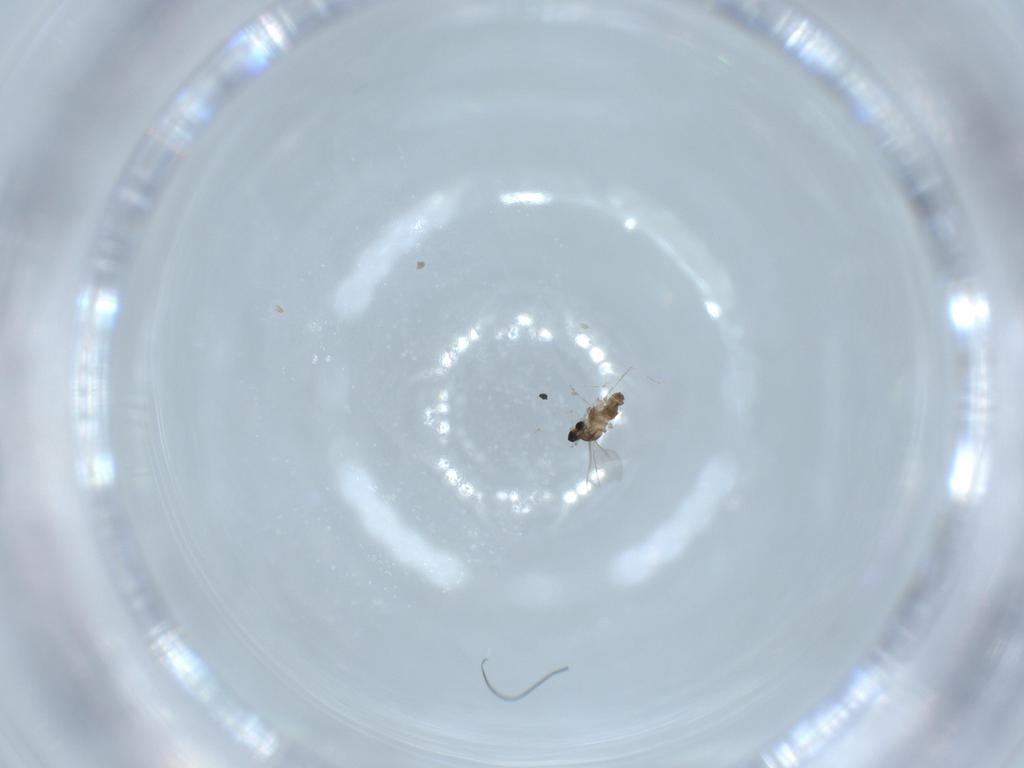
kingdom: Animalia
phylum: Arthropoda
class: Insecta
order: Diptera
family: Cecidomyiidae
